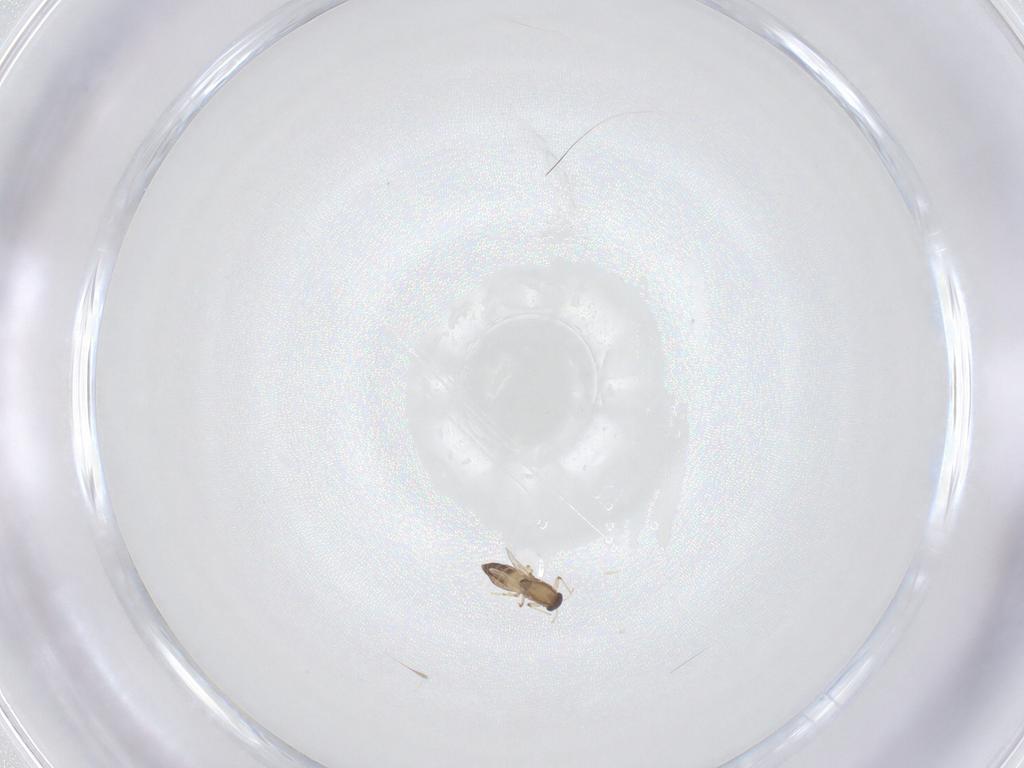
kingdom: Animalia
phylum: Arthropoda
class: Insecta
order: Diptera
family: Chironomidae
